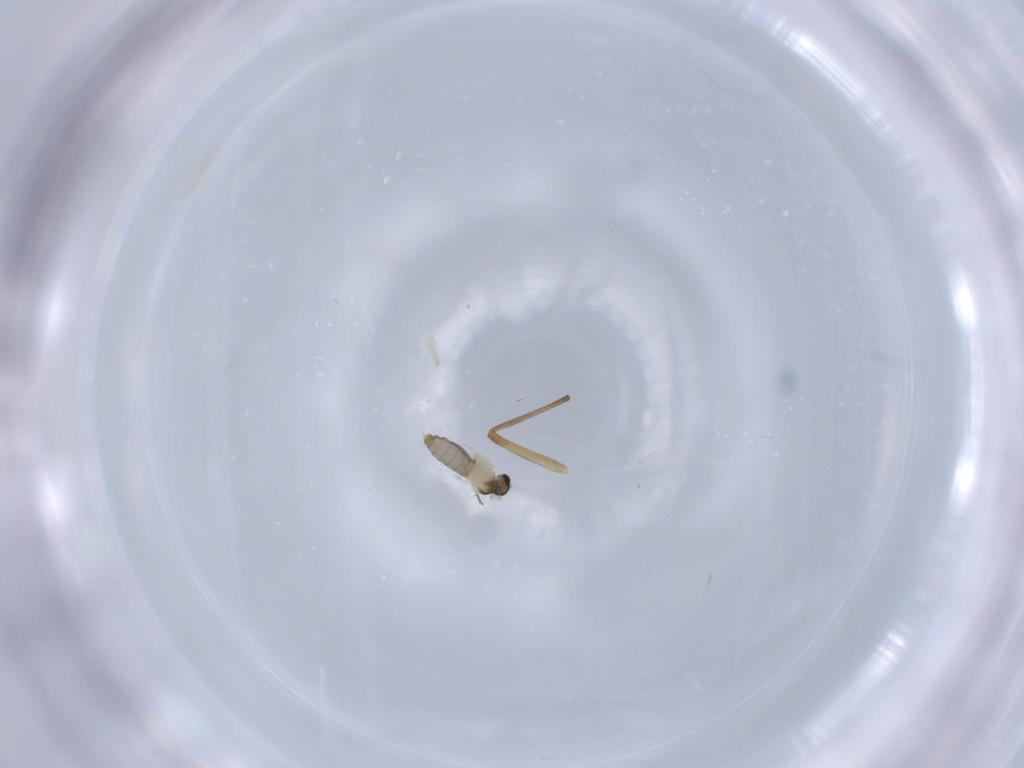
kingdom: Animalia
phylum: Arthropoda
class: Insecta
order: Diptera
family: Chironomidae
